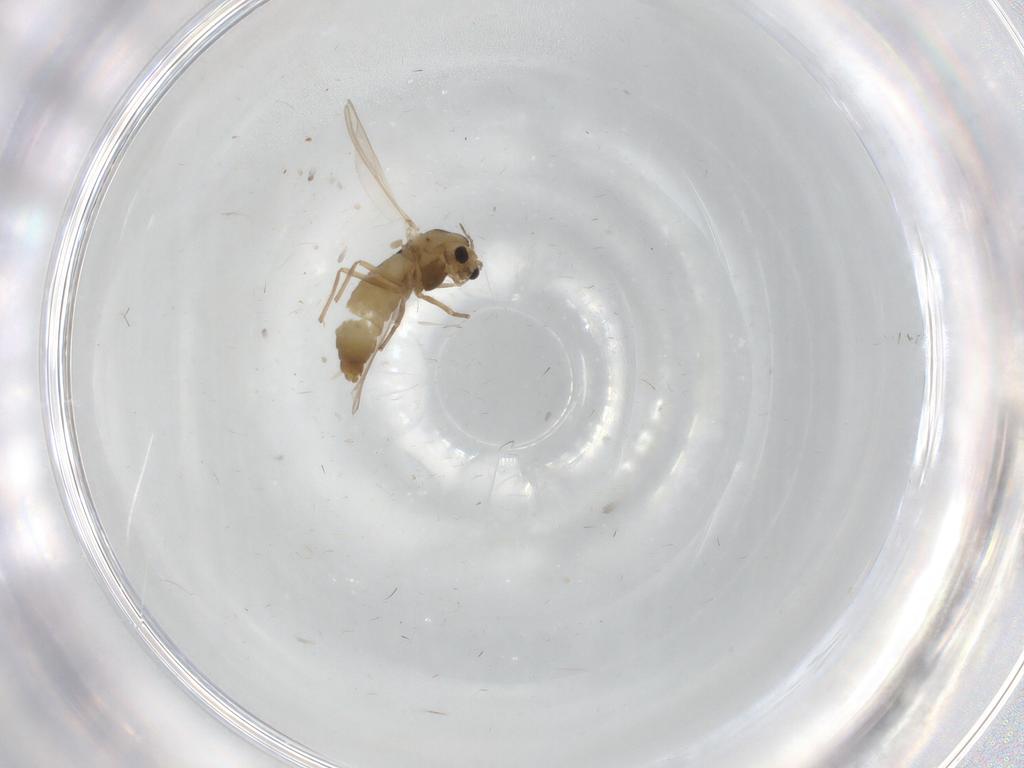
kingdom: Animalia
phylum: Arthropoda
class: Insecta
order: Diptera
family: Chironomidae
